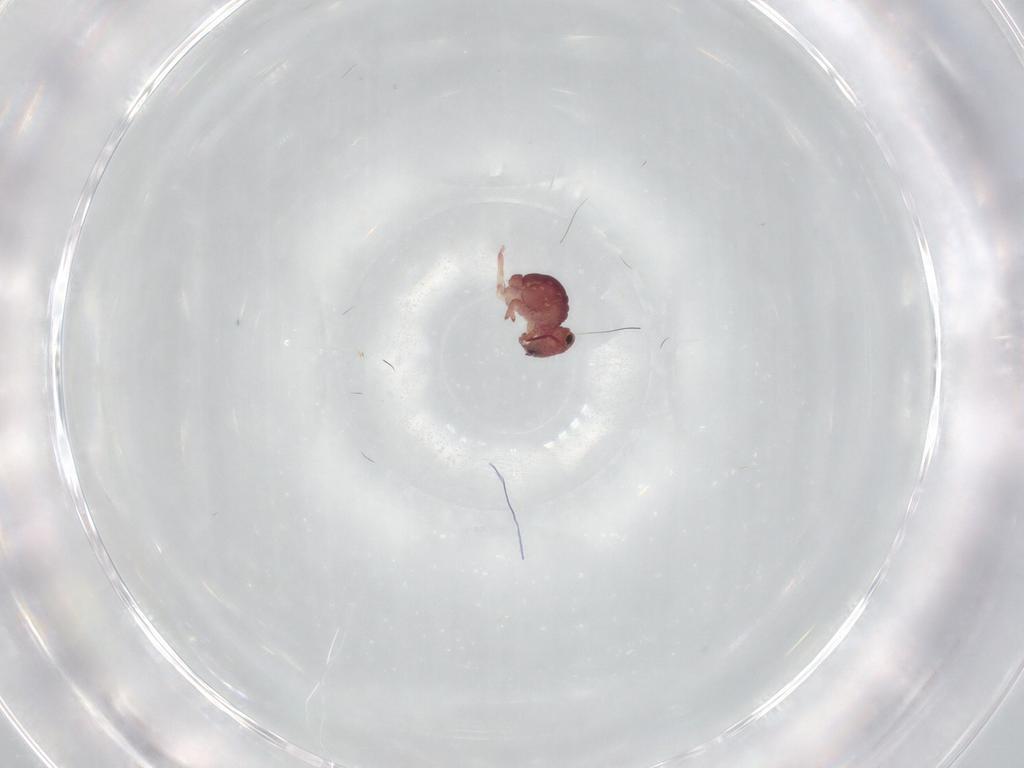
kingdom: Animalia
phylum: Arthropoda
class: Collembola
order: Symphypleona
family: Sminthurididae
